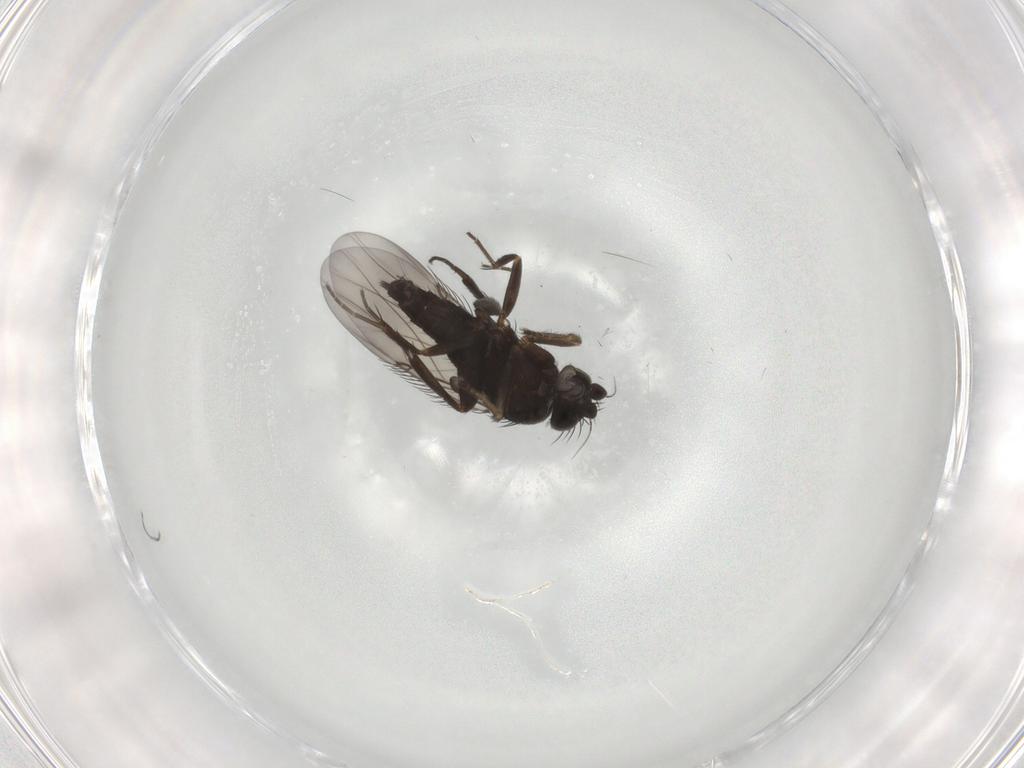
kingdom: Animalia
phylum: Arthropoda
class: Insecta
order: Diptera
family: Phoridae
